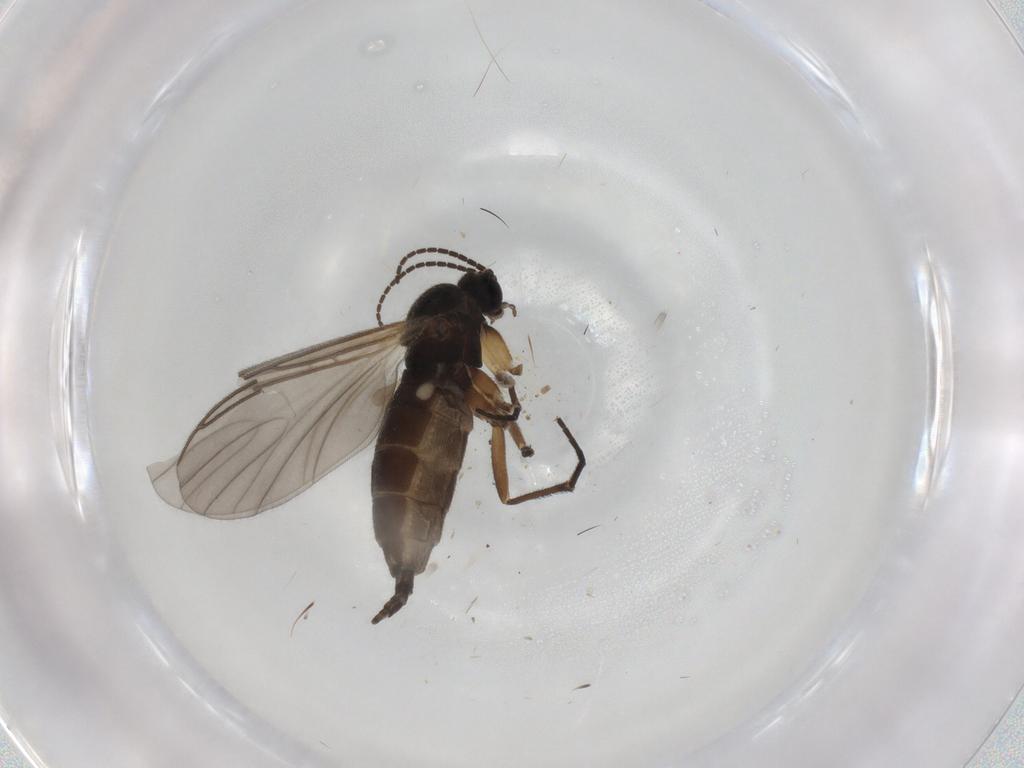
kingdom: Animalia
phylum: Arthropoda
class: Insecta
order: Diptera
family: Sciaridae
